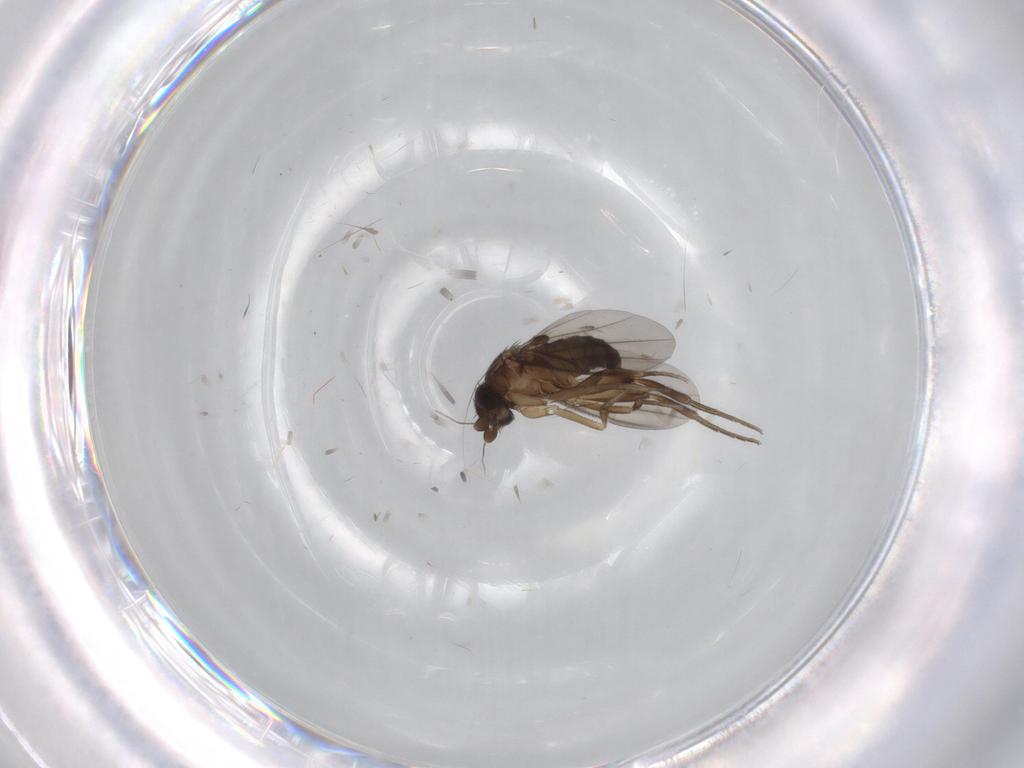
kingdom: Animalia
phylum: Arthropoda
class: Insecta
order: Diptera
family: Phoridae
